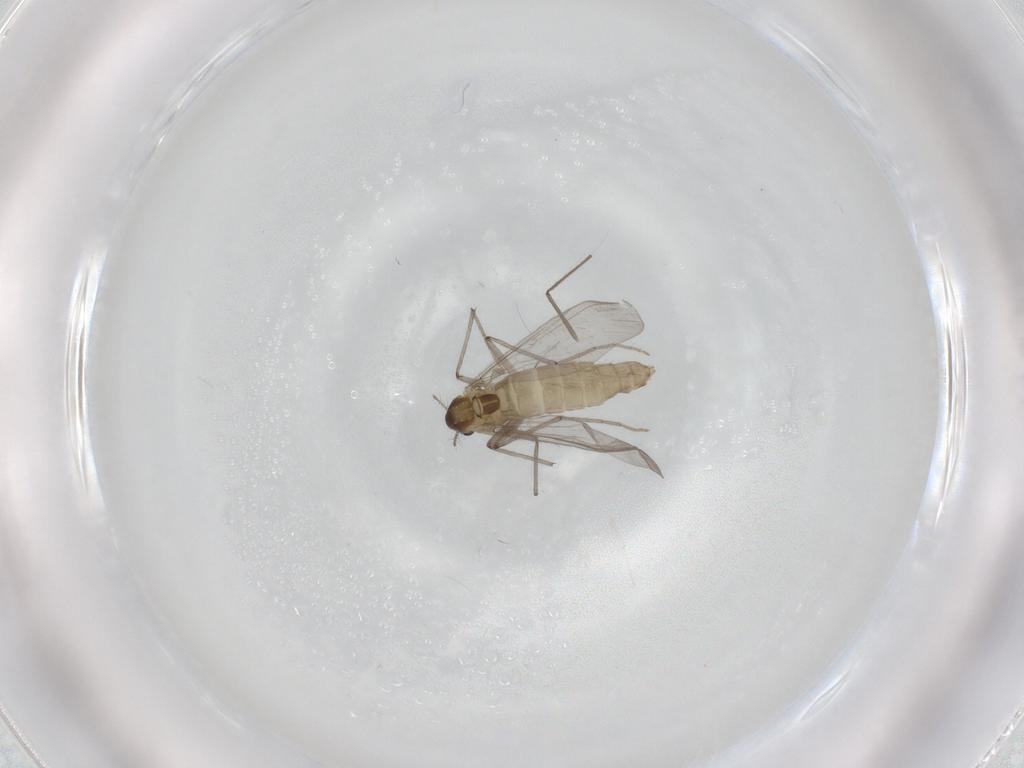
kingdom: Animalia
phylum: Arthropoda
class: Insecta
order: Diptera
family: Chironomidae
